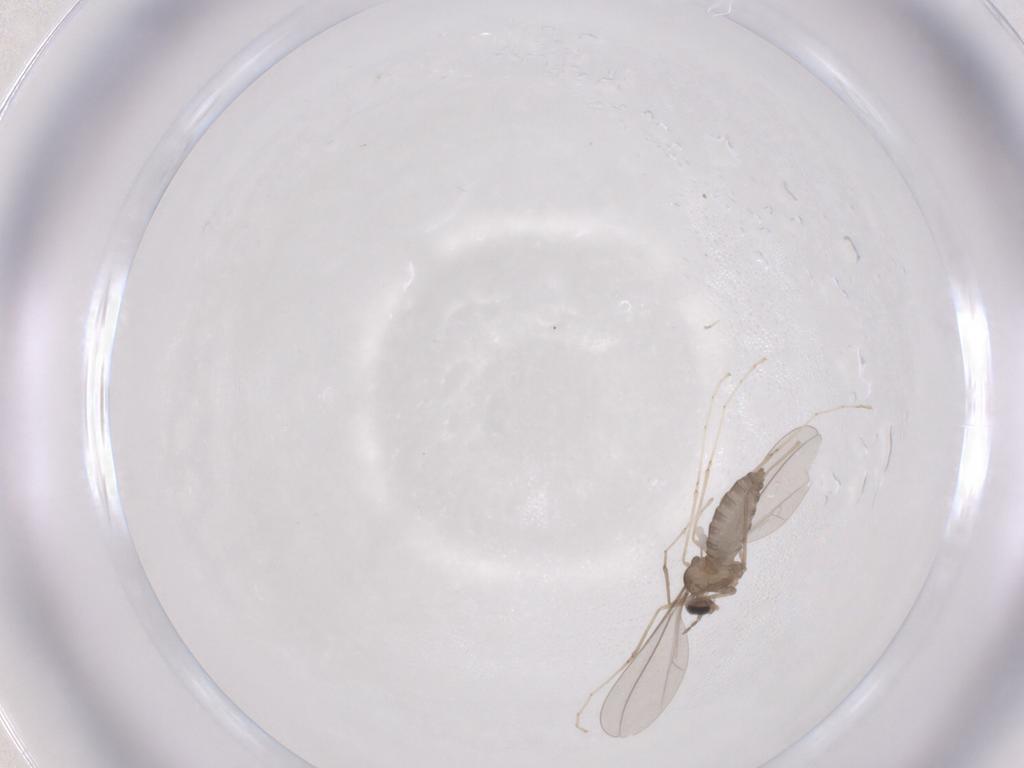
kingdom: Animalia
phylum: Arthropoda
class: Insecta
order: Diptera
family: Cecidomyiidae
